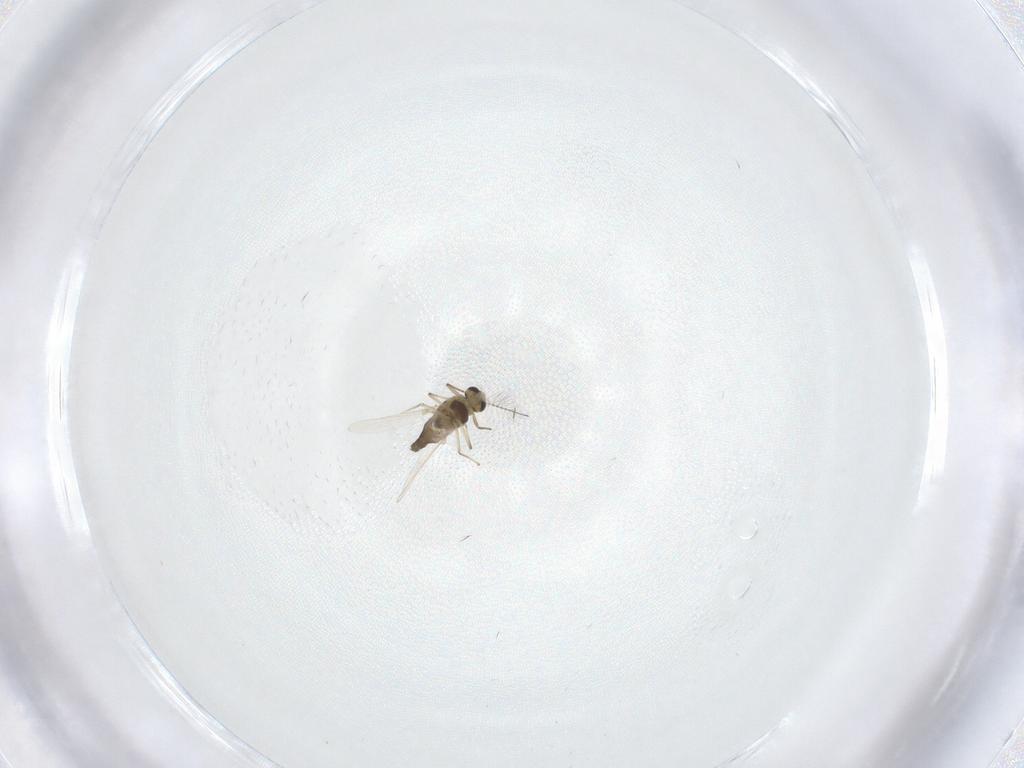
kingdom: Animalia
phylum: Arthropoda
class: Insecta
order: Diptera
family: Chironomidae
